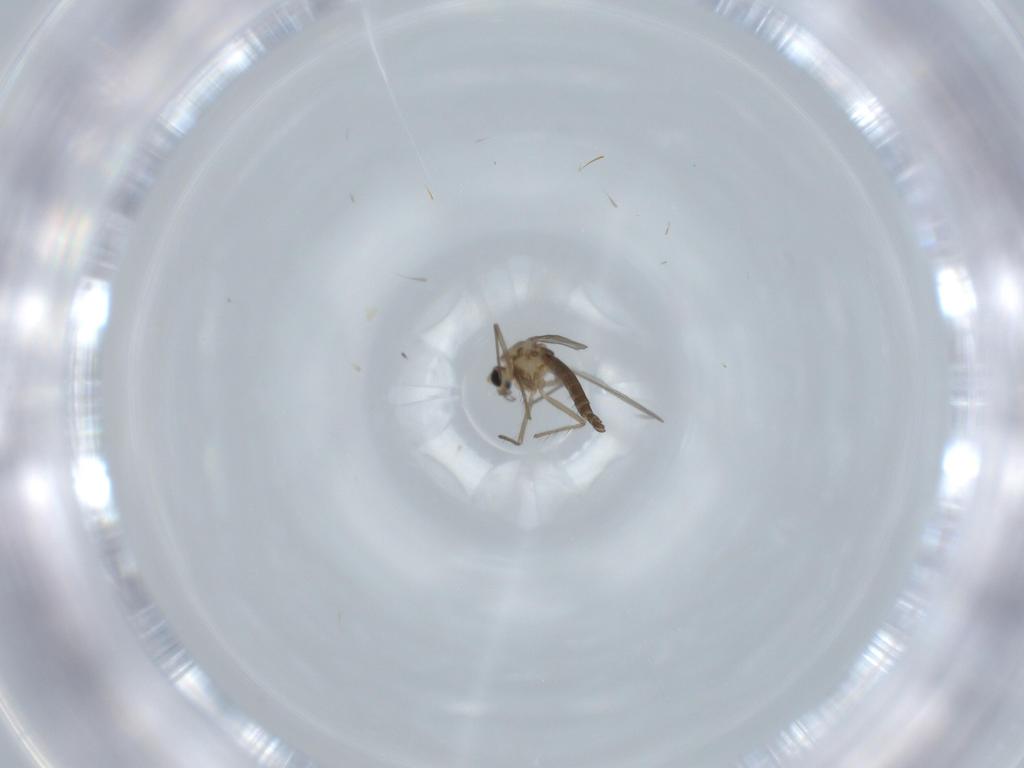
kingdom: Animalia
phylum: Arthropoda
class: Insecta
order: Diptera
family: Chironomidae
